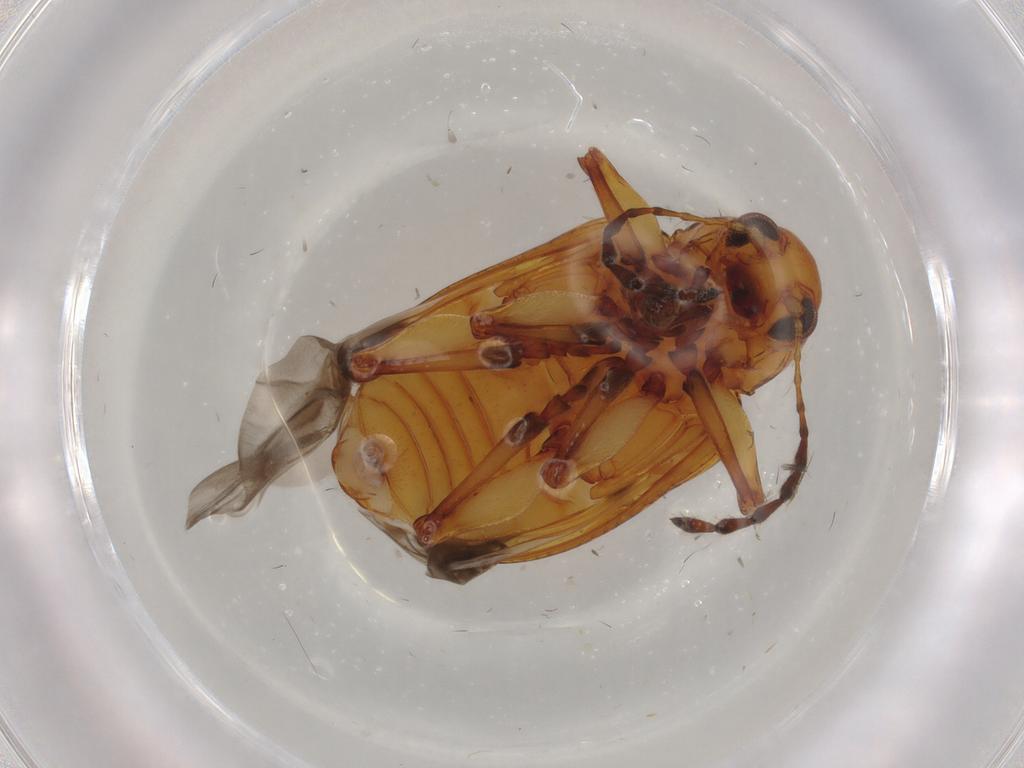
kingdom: Animalia
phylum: Arthropoda
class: Insecta
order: Coleoptera
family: Chrysomelidae
